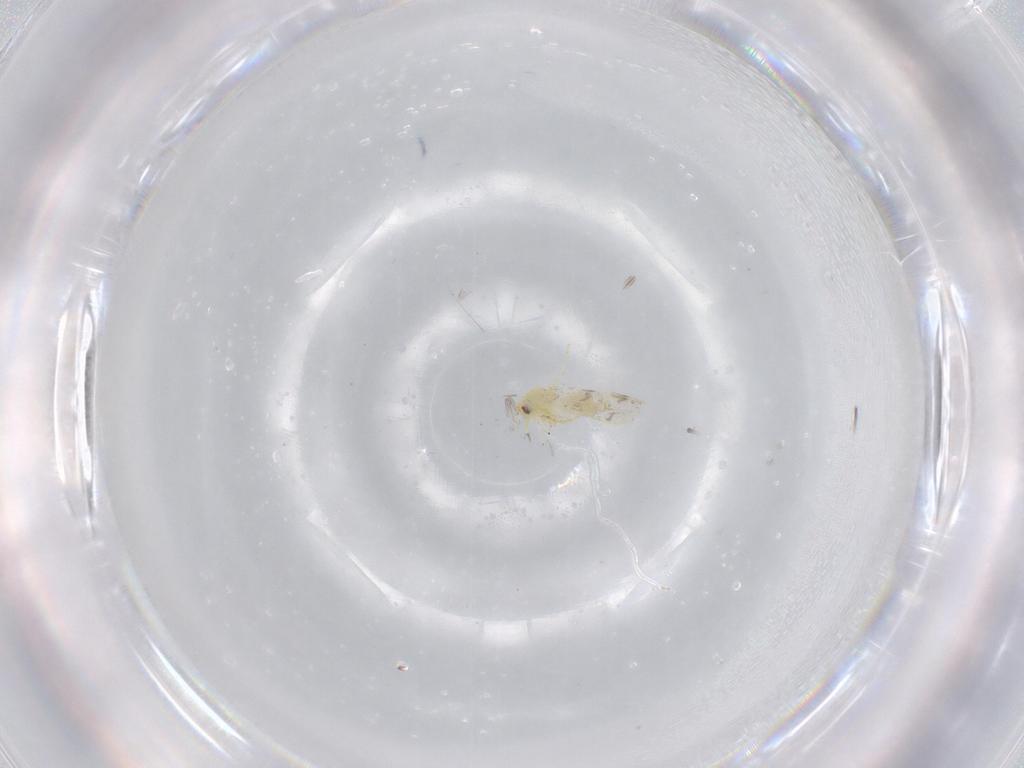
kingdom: Animalia
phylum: Arthropoda
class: Insecta
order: Hemiptera
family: Aleyrodidae
